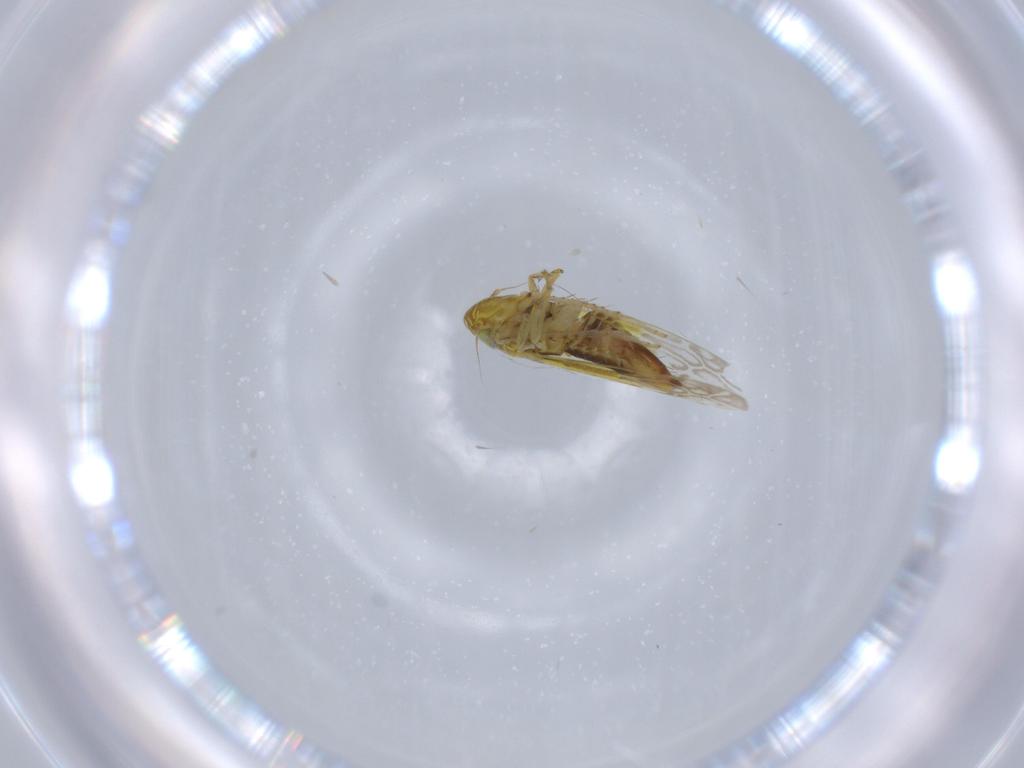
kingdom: Animalia
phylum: Arthropoda
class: Insecta
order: Hemiptera
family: Cicadellidae
